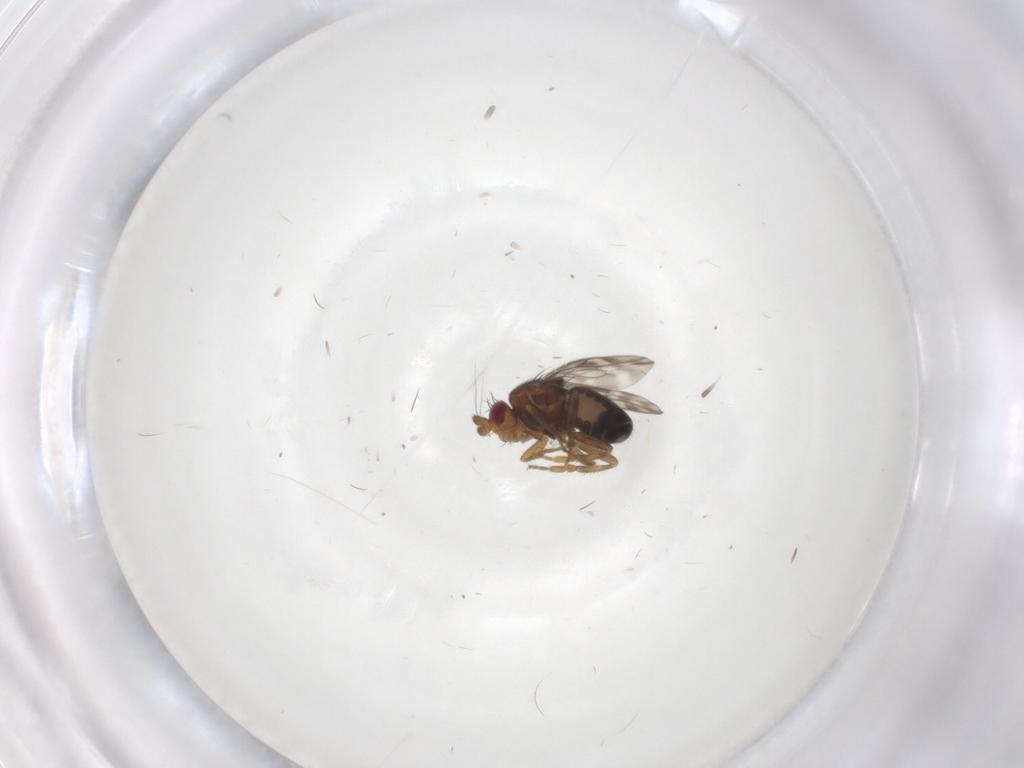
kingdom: Animalia
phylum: Arthropoda
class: Insecta
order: Diptera
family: Sphaeroceridae
